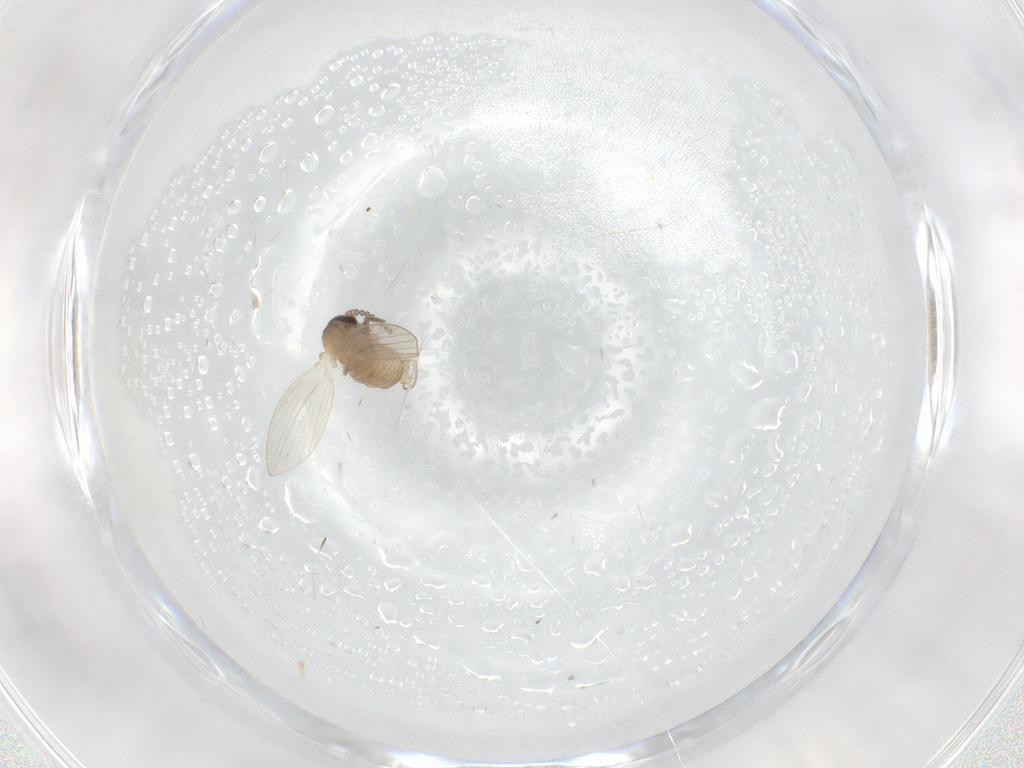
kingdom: Animalia
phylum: Arthropoda
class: Insecta
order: Diptera
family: Psychodidae
